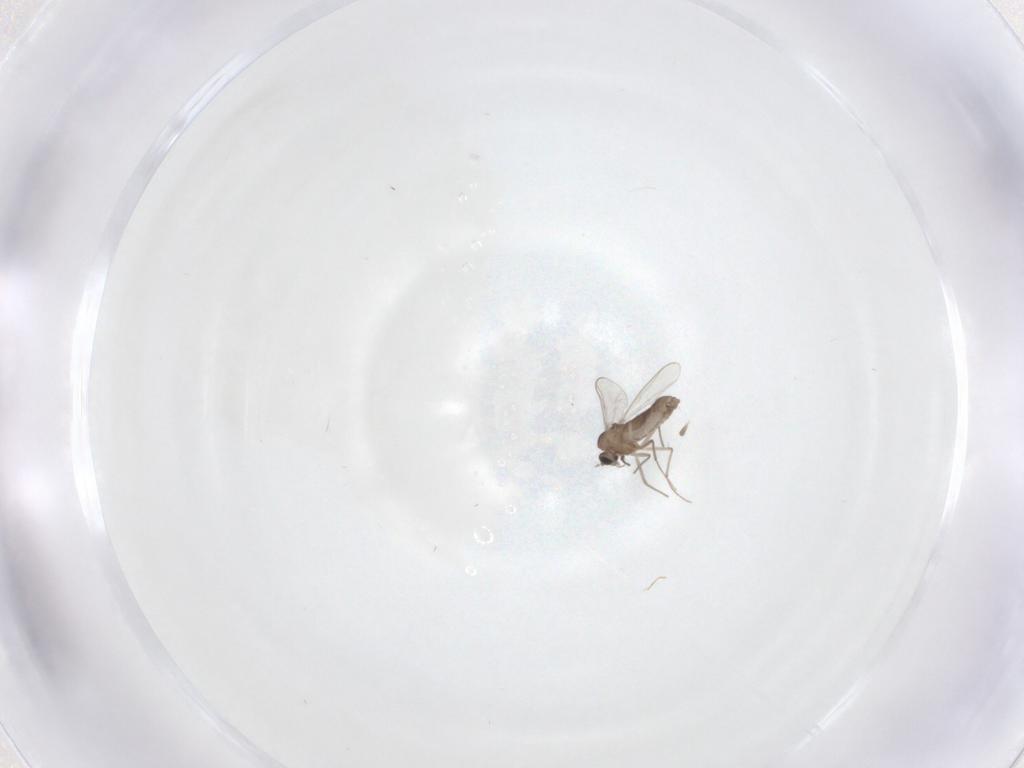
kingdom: Animalia
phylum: Arthropoda
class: Insecta
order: Diptera
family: Chironomidae
